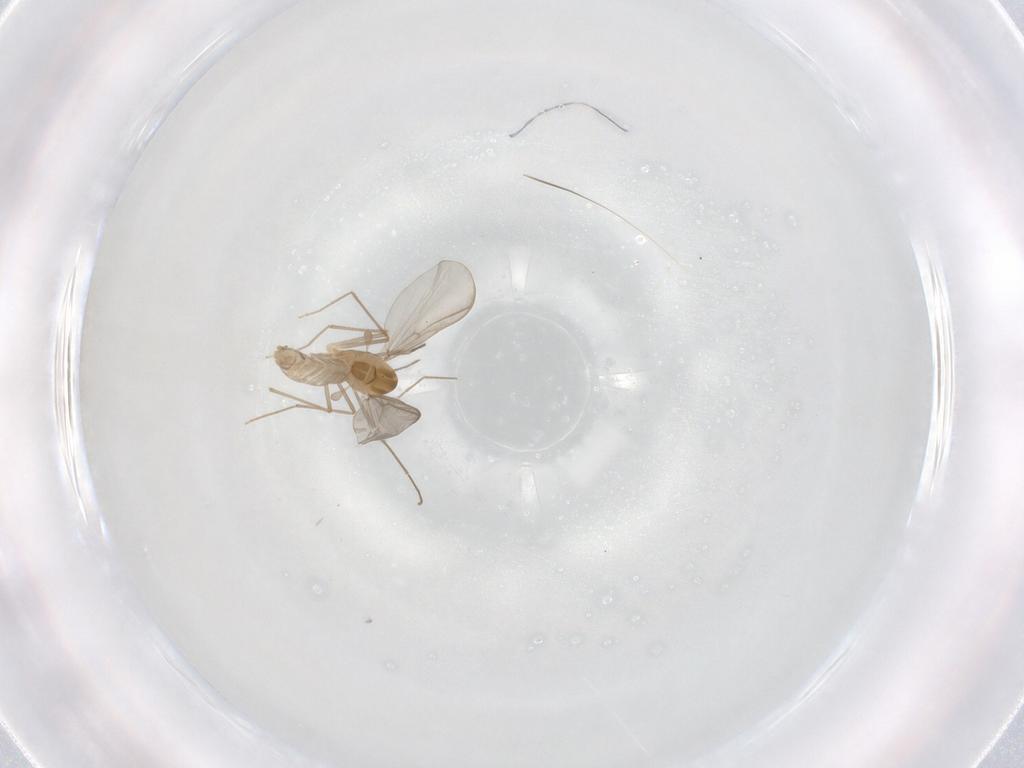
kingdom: Animalia
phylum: Arthropoda
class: Insecta
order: Diptera
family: Chironomidae
